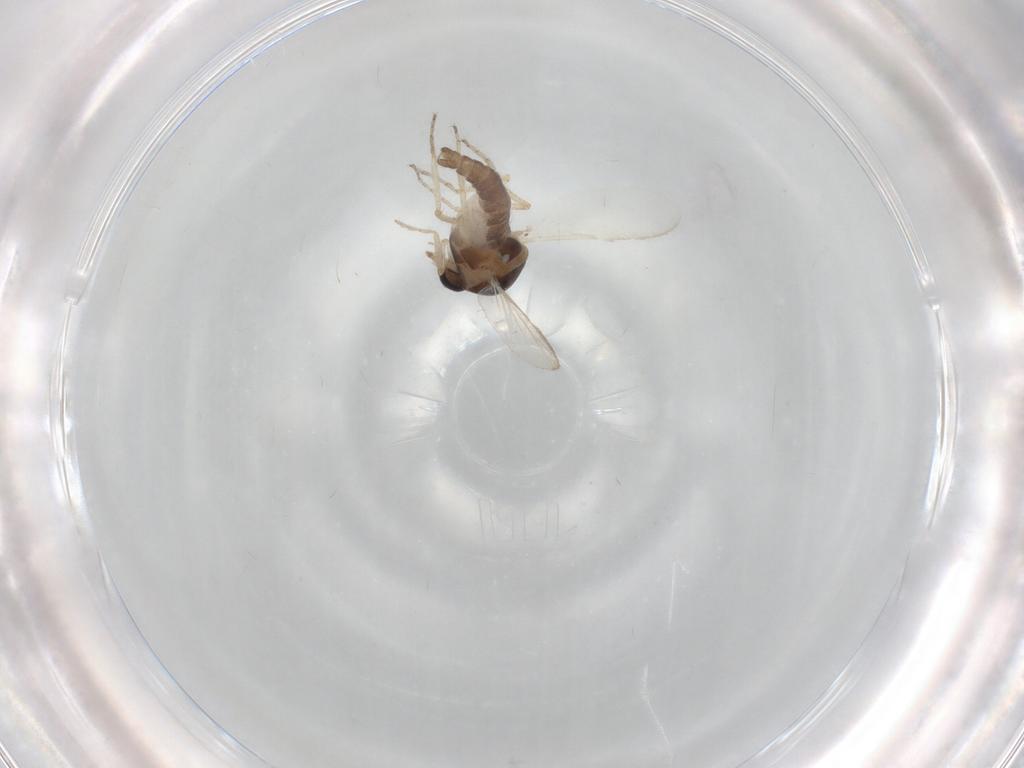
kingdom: Animalia
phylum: Arthropoda
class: Insecta
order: Diptera
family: Ceratopogonidae
